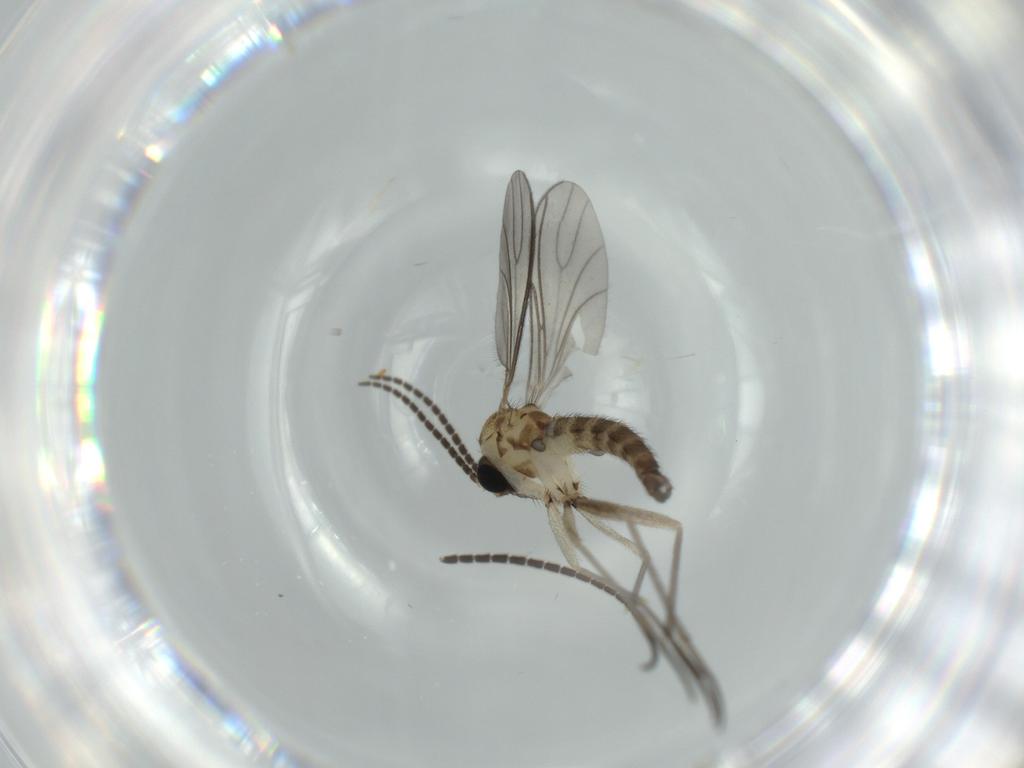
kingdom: Animalia
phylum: Arthropoda
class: Insecta
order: Diptera
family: Sciaridae
